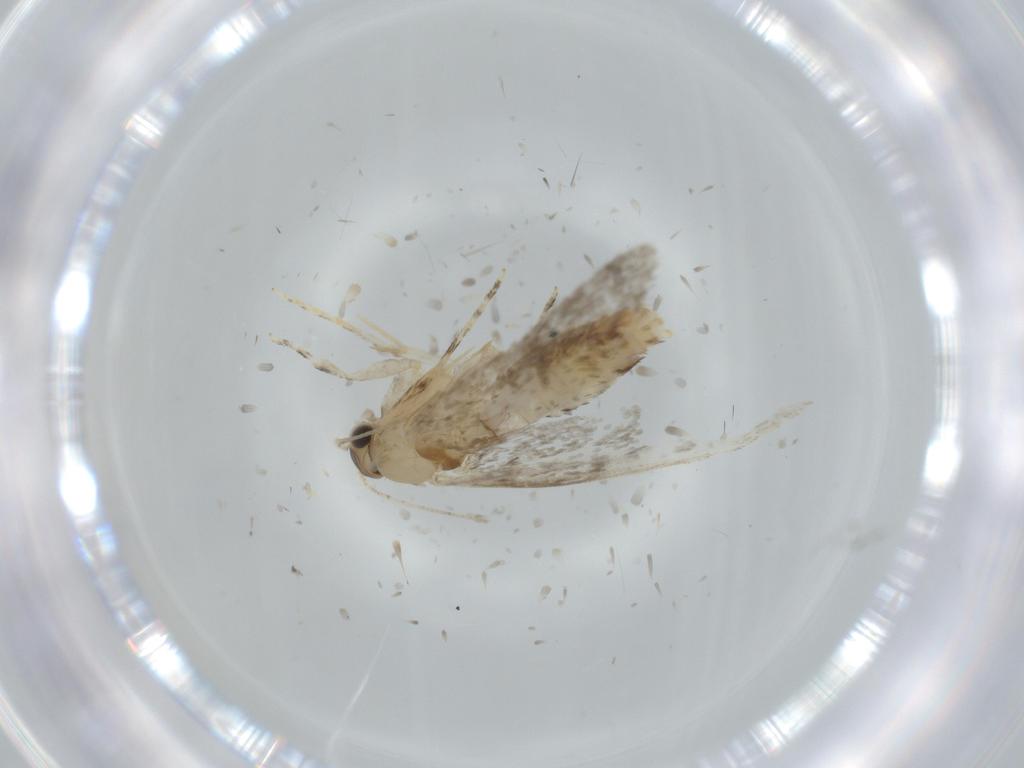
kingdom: Animalia
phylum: Arthropoda
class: Insecta
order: Lepidoptera
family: Tineidae
